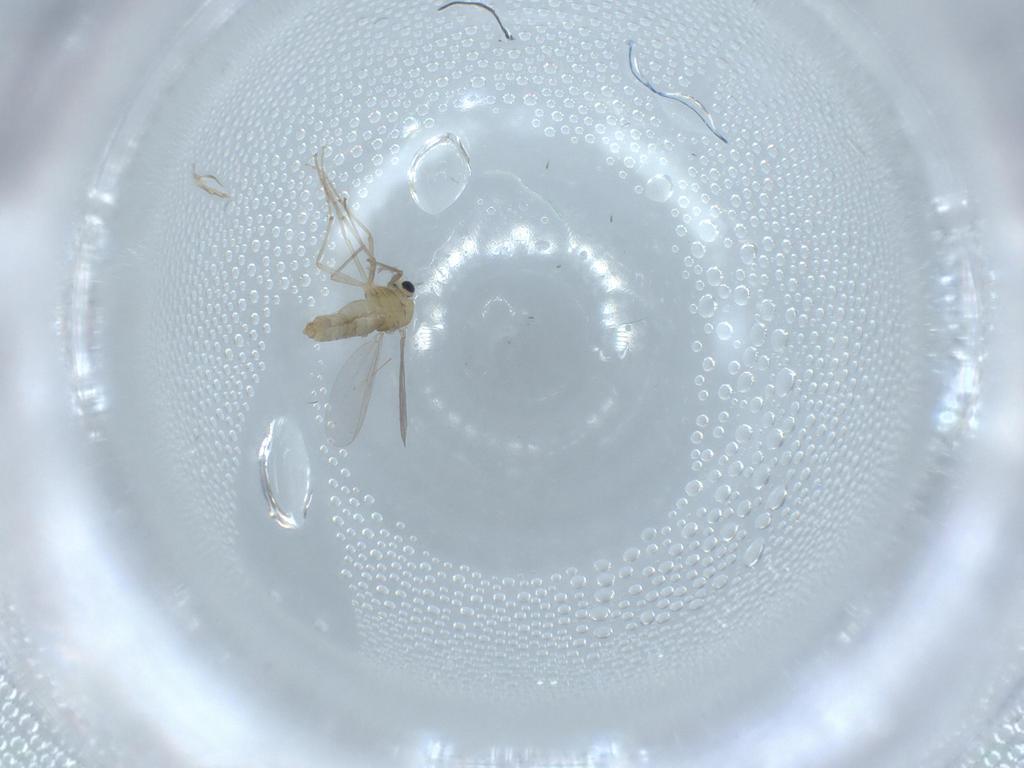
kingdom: Animalia
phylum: Arthropoda
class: Insecta
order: Diptera
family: Chironomidae
